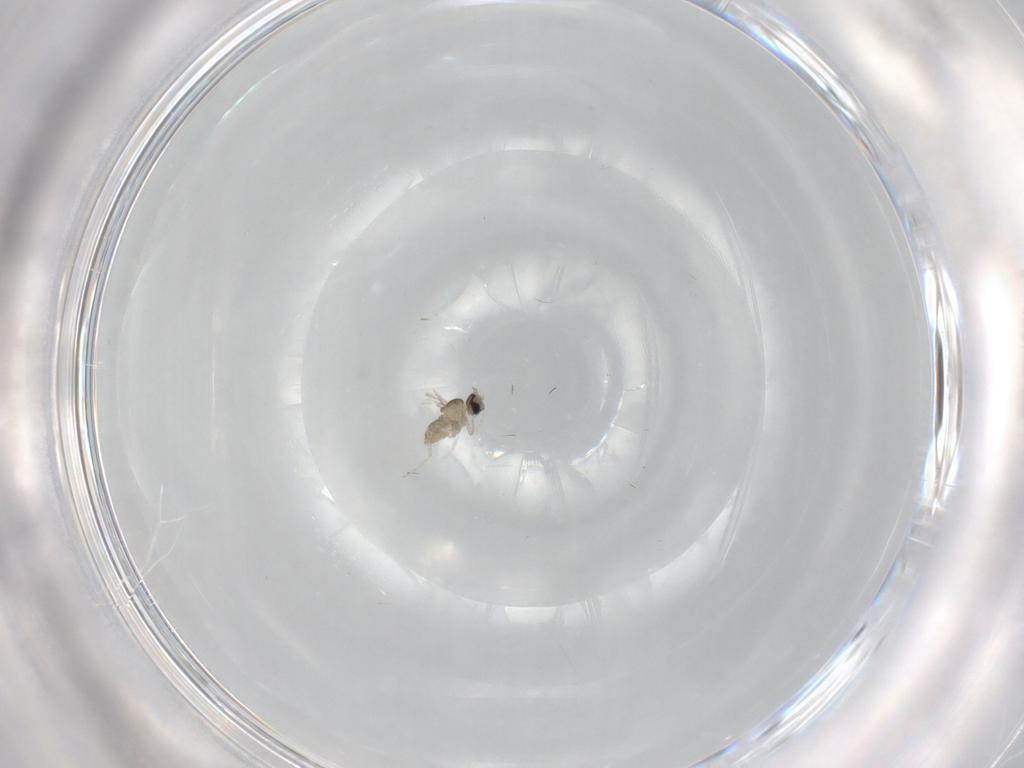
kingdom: Animalia
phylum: Arthropoda
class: Insecta
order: Diptera
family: Cecidomyiidae
